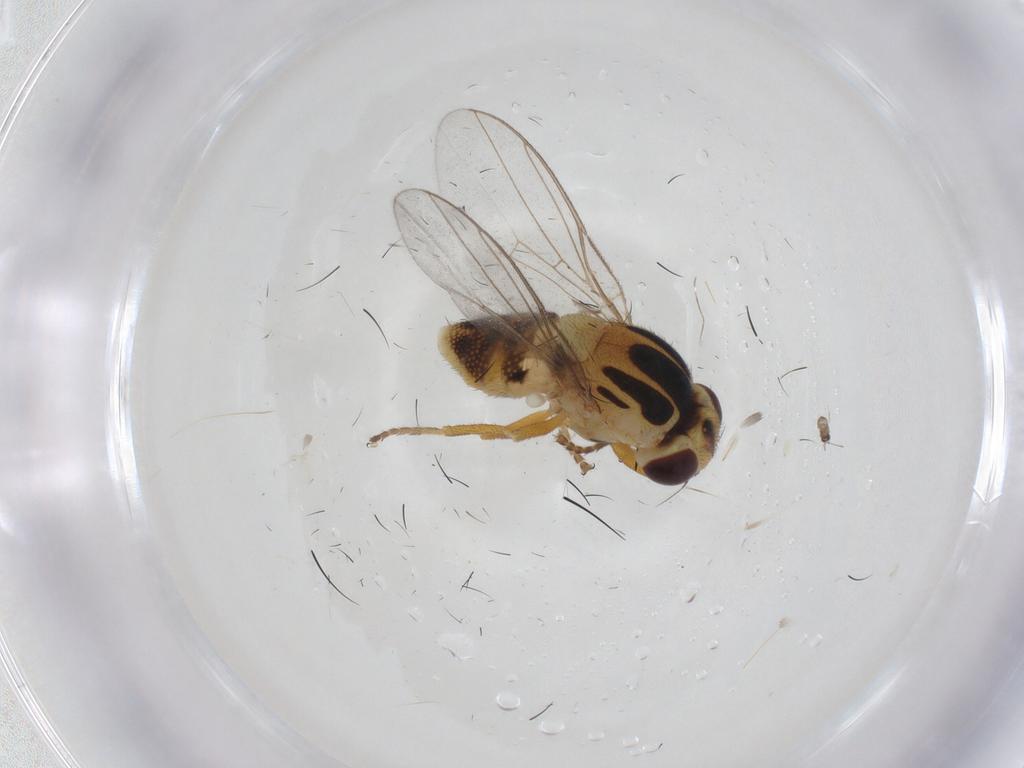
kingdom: Animalia
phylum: Arthropoda
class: Insecta
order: Diptera
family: Chloropidae
